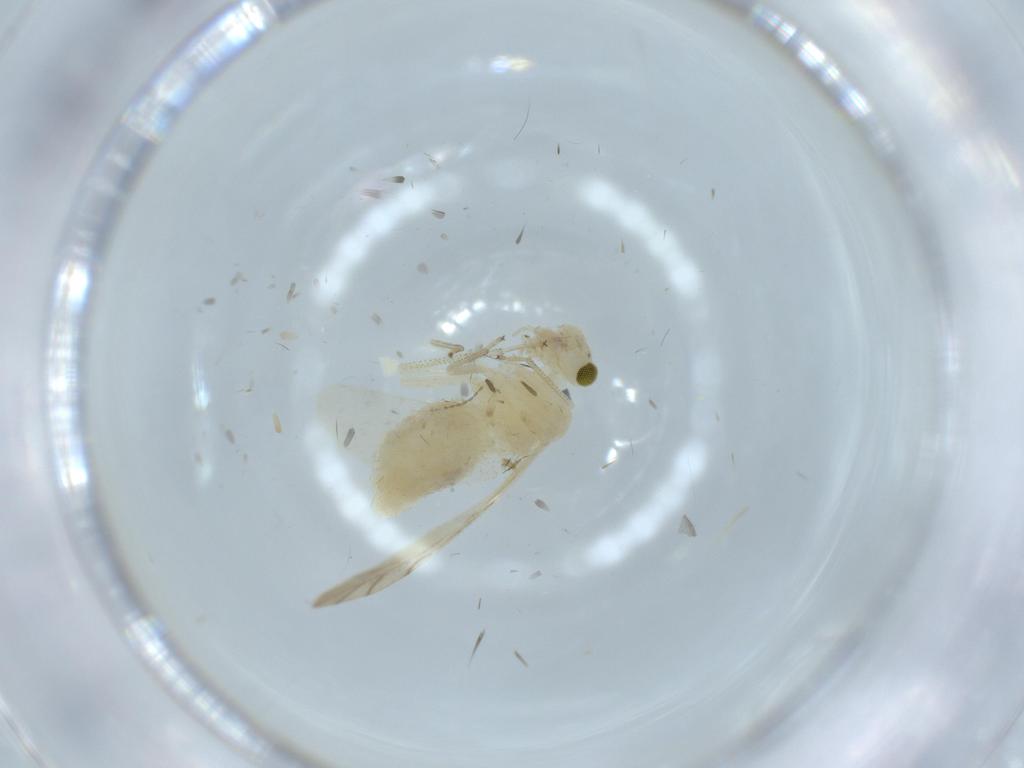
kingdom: Animalia
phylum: Arthropoda
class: Insecta
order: Psocodea
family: Caeciliusidae
